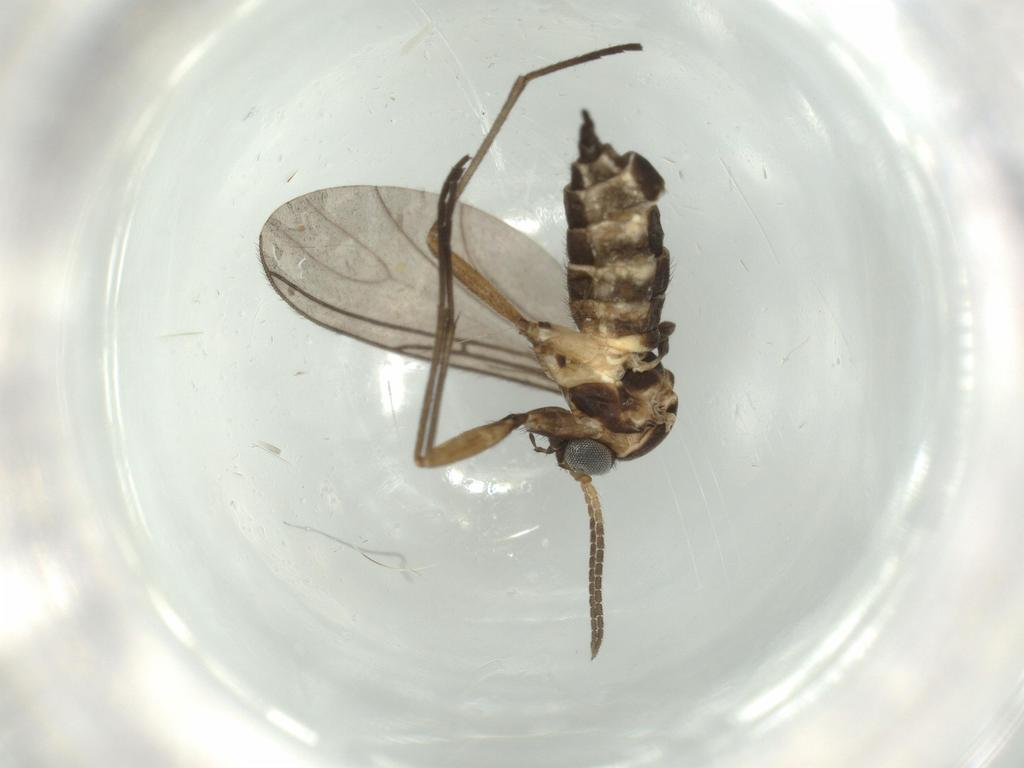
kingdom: Animalia
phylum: Arthropoda
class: Insecta
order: Diptera
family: Sciaridae
